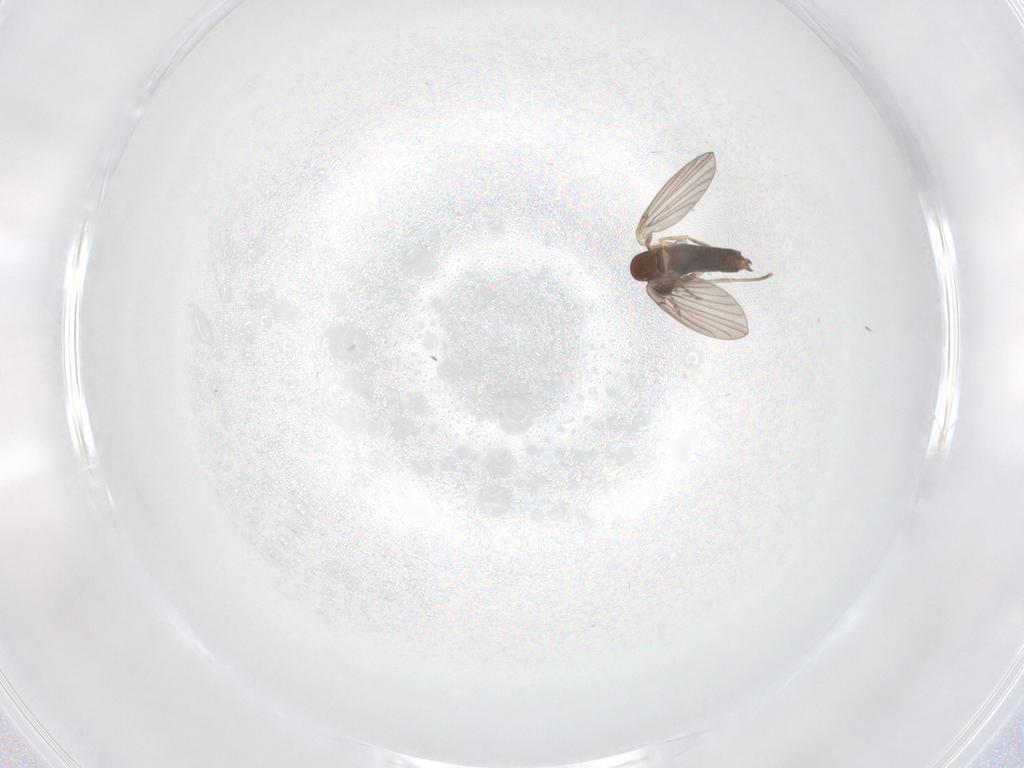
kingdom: Animalia
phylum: Arthropoda
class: Insecta
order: Diptera
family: Sciaridae
